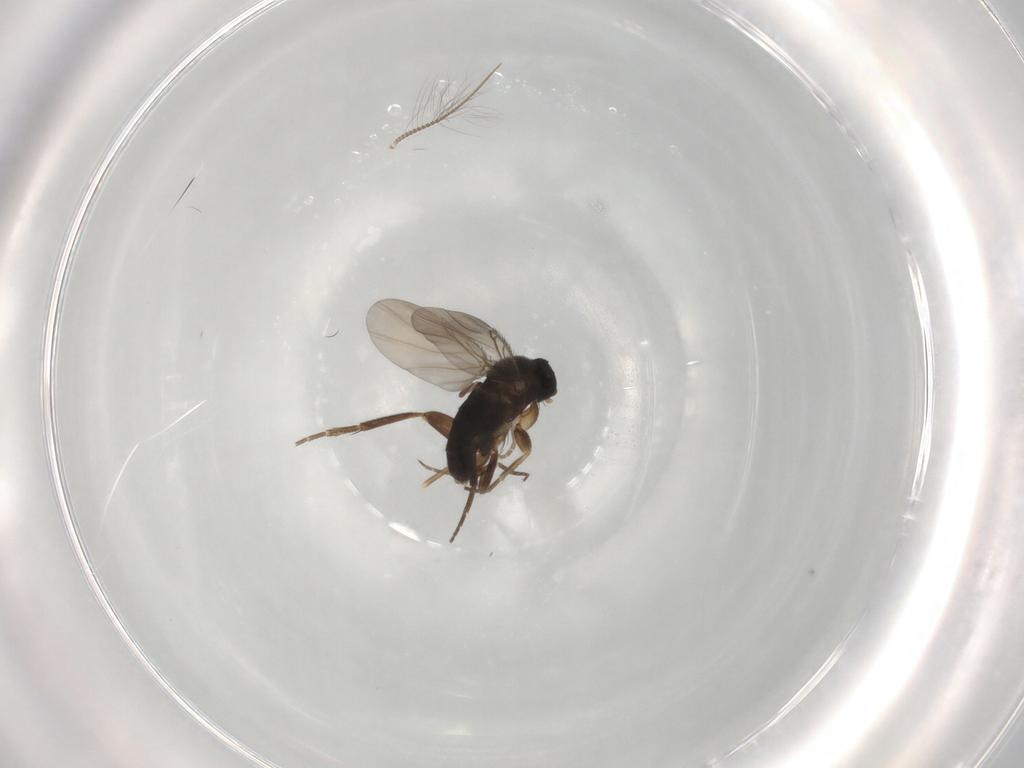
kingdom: Animalia
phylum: Arthropoda
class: Insecta
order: Diptera
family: Phoridae
